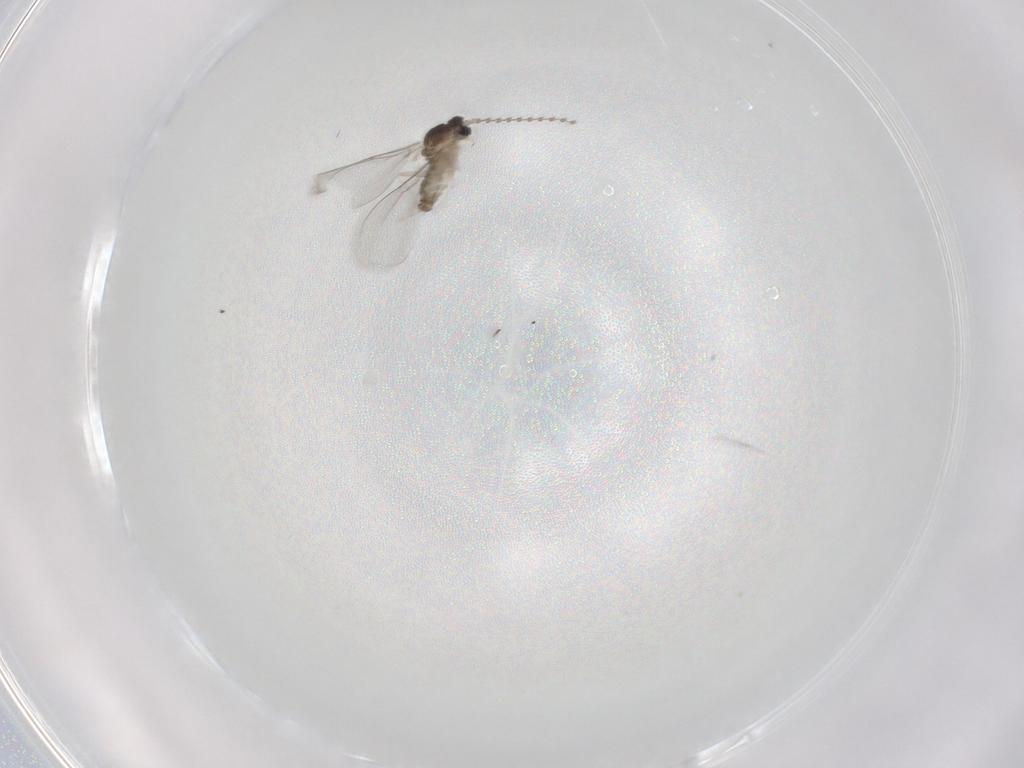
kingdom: Animalia
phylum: Arthropoda
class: Insecta
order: Diptera
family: Cecidomyiidae
